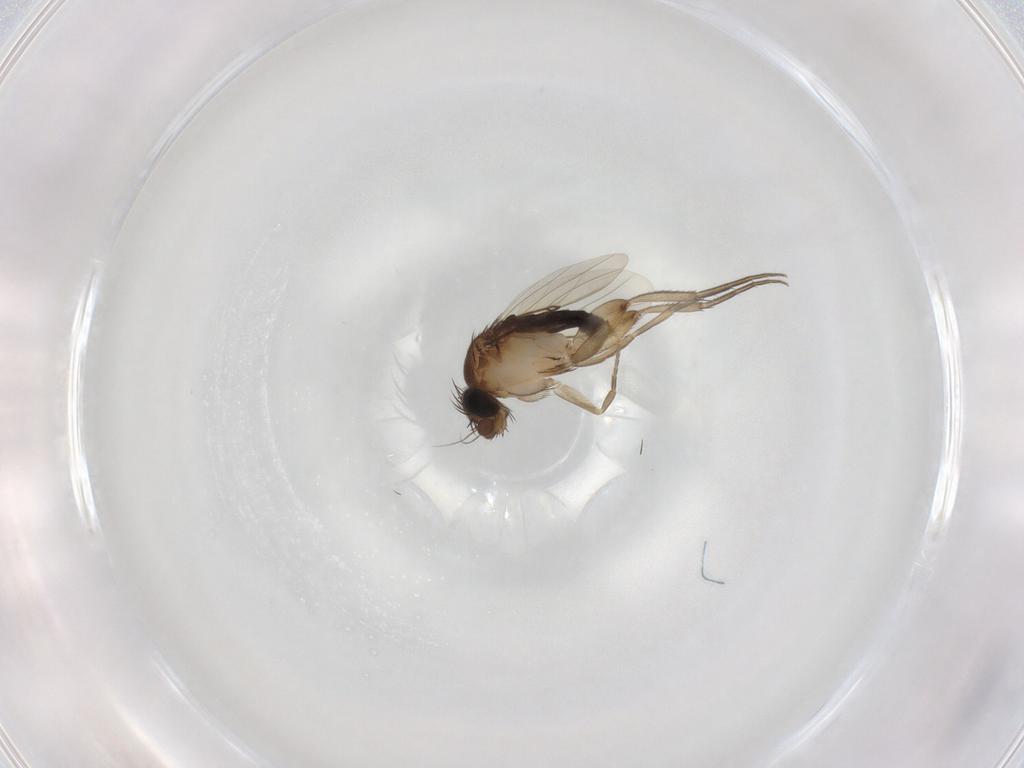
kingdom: Animalia
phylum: Arthropoda
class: Insecta
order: Diptera
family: Phoridae
